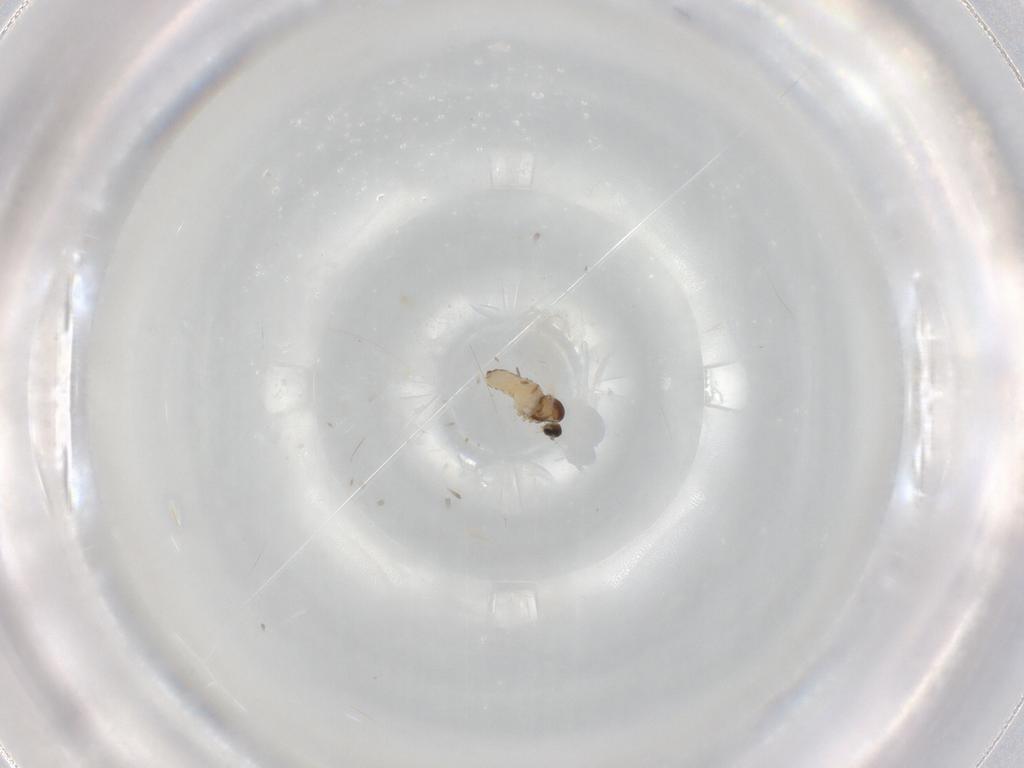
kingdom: Animalia
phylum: Arthropoda
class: Insecta
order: Diptera
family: Cecidomyiidae
